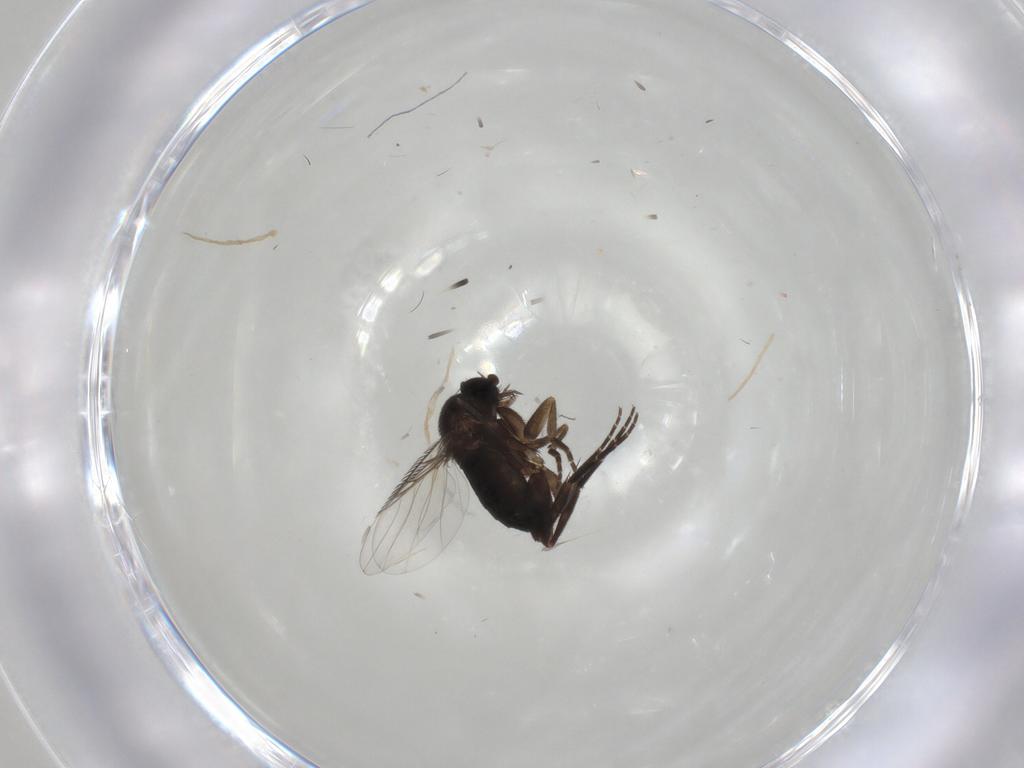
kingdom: Animalia
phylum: Arthropoda
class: Insecta
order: Diptera
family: Phoridae
